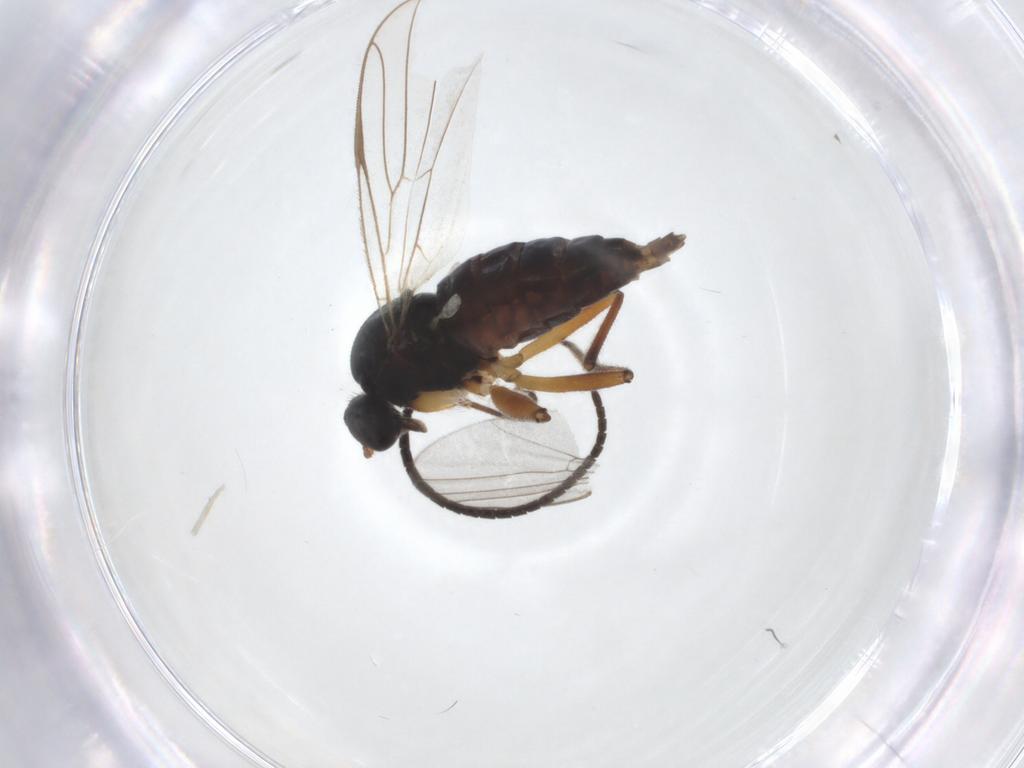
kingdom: Animalia
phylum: Arthropoda
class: Insecta
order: Diptera
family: Hybotidae
